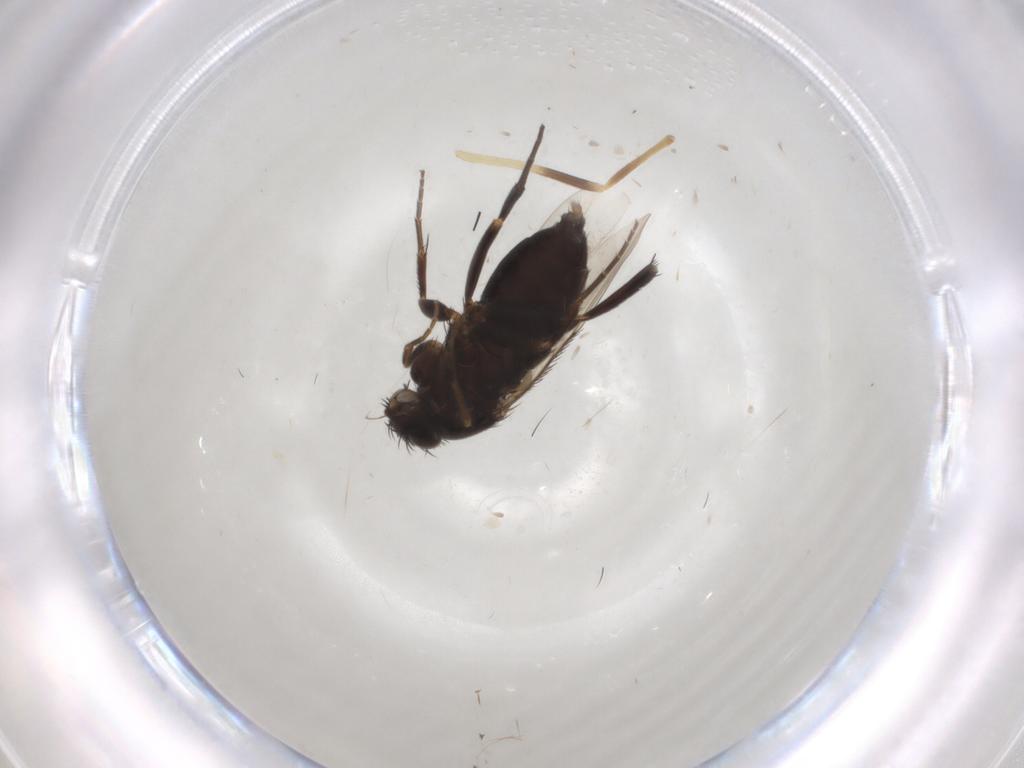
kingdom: Animalia
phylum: Arthropoda
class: Insecta
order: Diptera
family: Phoridae
